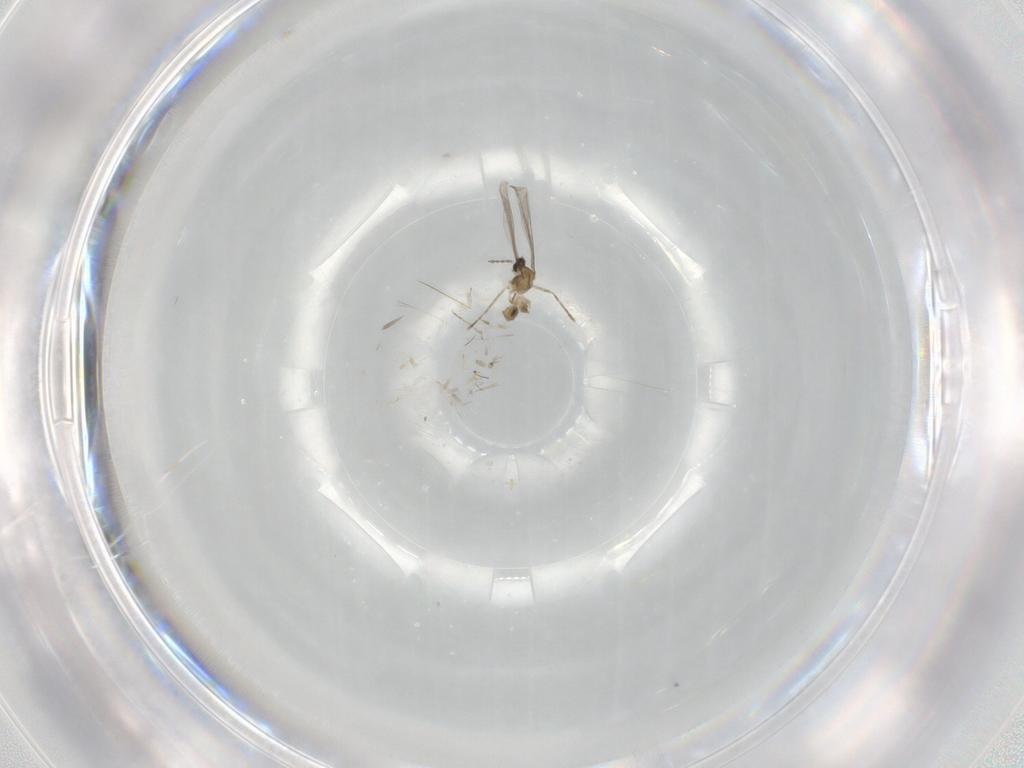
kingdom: Animalia
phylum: Arthropoda
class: Insecta
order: Diptera
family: Cecidomyiidae
